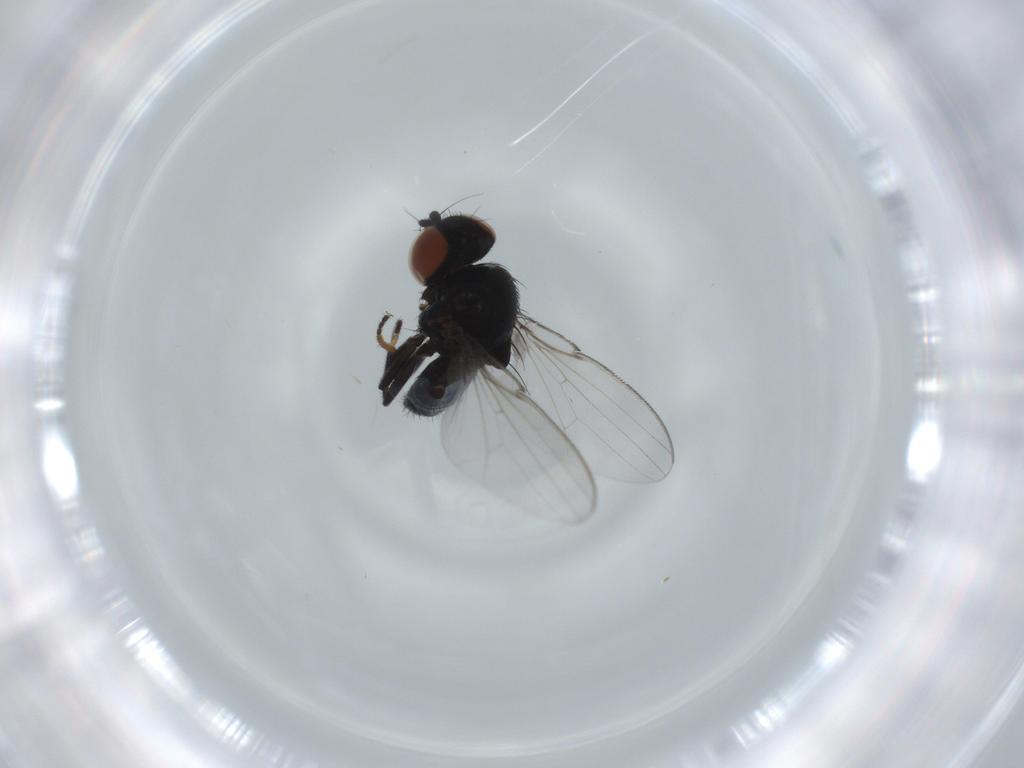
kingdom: Animalia
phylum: Arthropoda
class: Insecta
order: Diptera
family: Milichiidae
